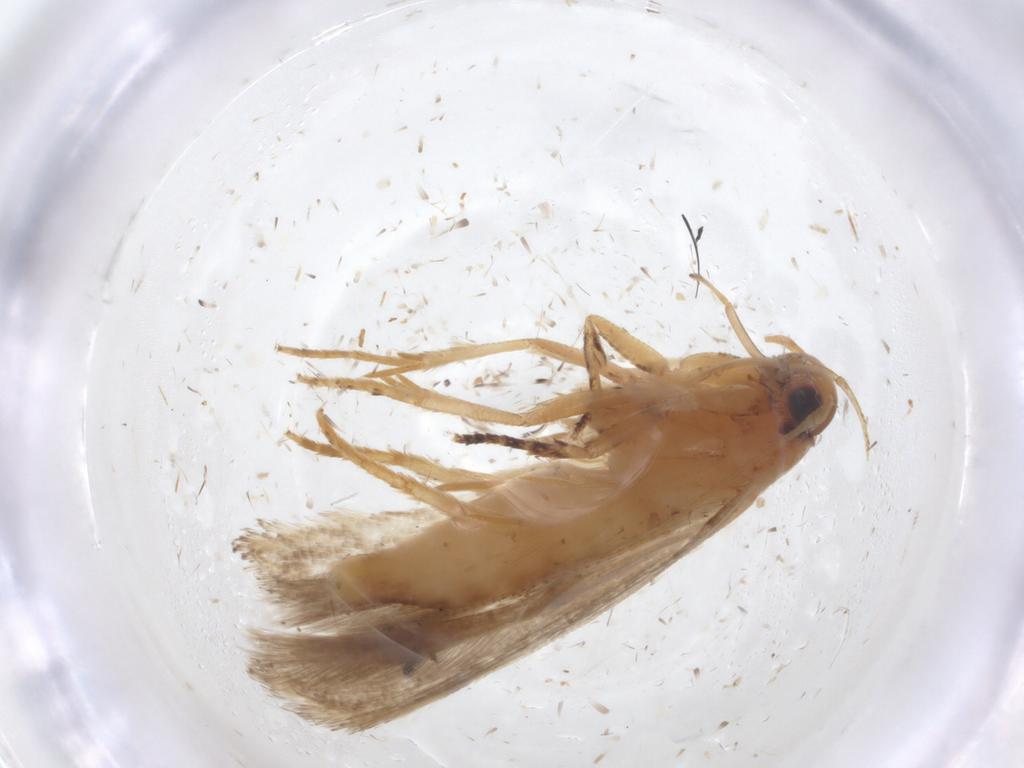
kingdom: Animalia
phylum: Arthropoda
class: Insecta
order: Lepidoptera
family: Gelechiidae
